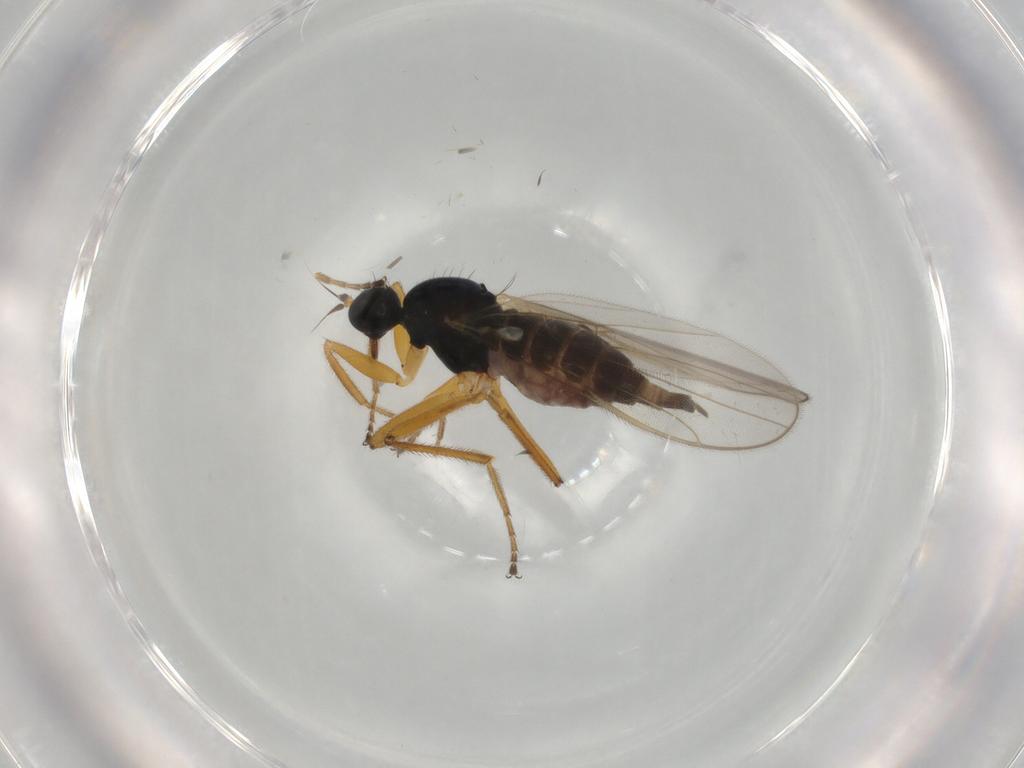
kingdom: Animalia
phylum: Arthropoda
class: Insecta
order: Diptera
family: Hybotidae
